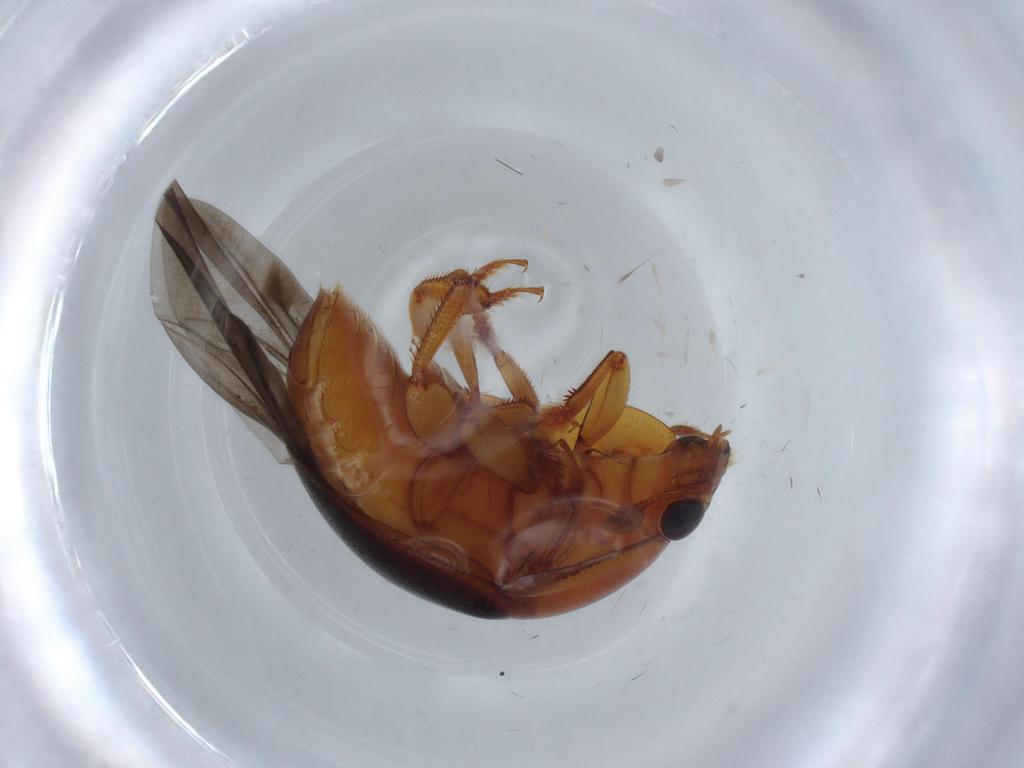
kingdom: Animalia
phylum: Arthropoda
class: Insecta
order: Coleoptera
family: Nitidulidae
